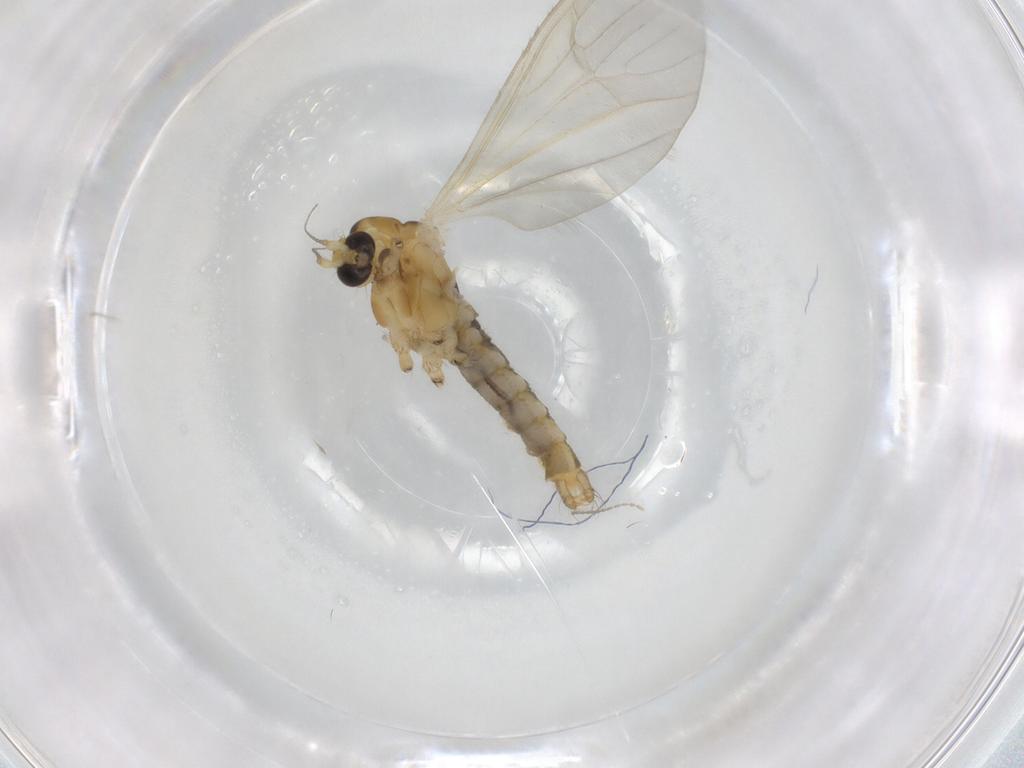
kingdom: Animalia
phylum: Arthropoda
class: Insecta
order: Diptera
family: Limoniidae
